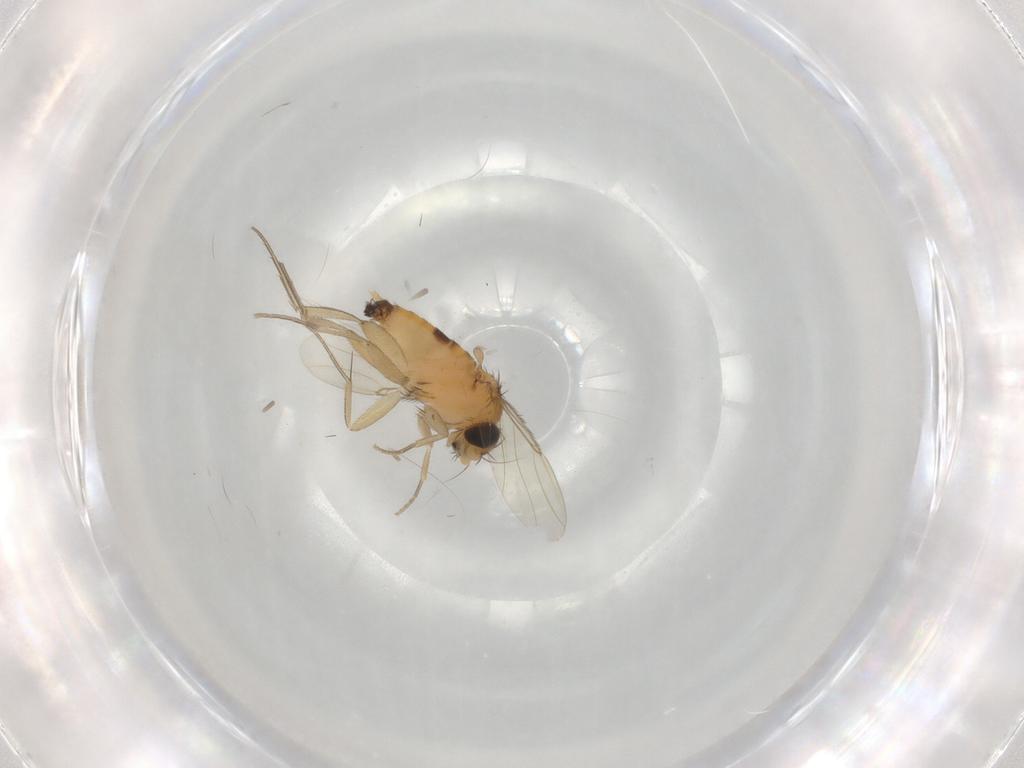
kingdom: Animalia
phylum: Arthropoda
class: Insecta
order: Diptera
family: Phoridae
